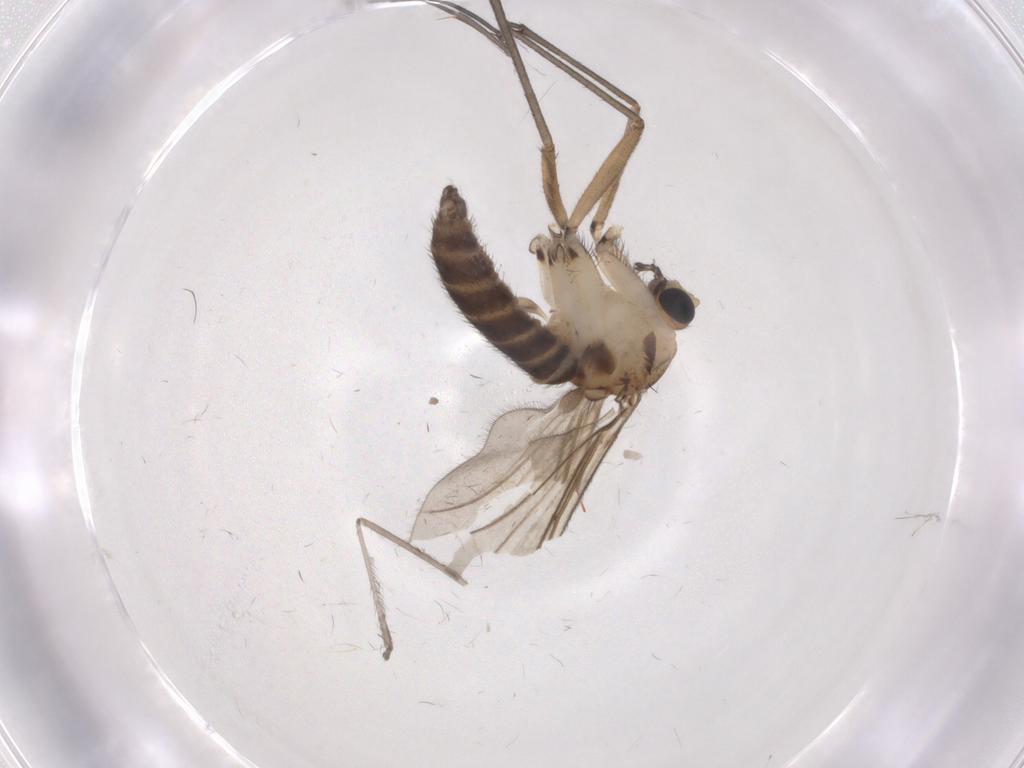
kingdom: Animalia
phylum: Arthropoda
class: Insecta
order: Diptera
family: Sciaridae
